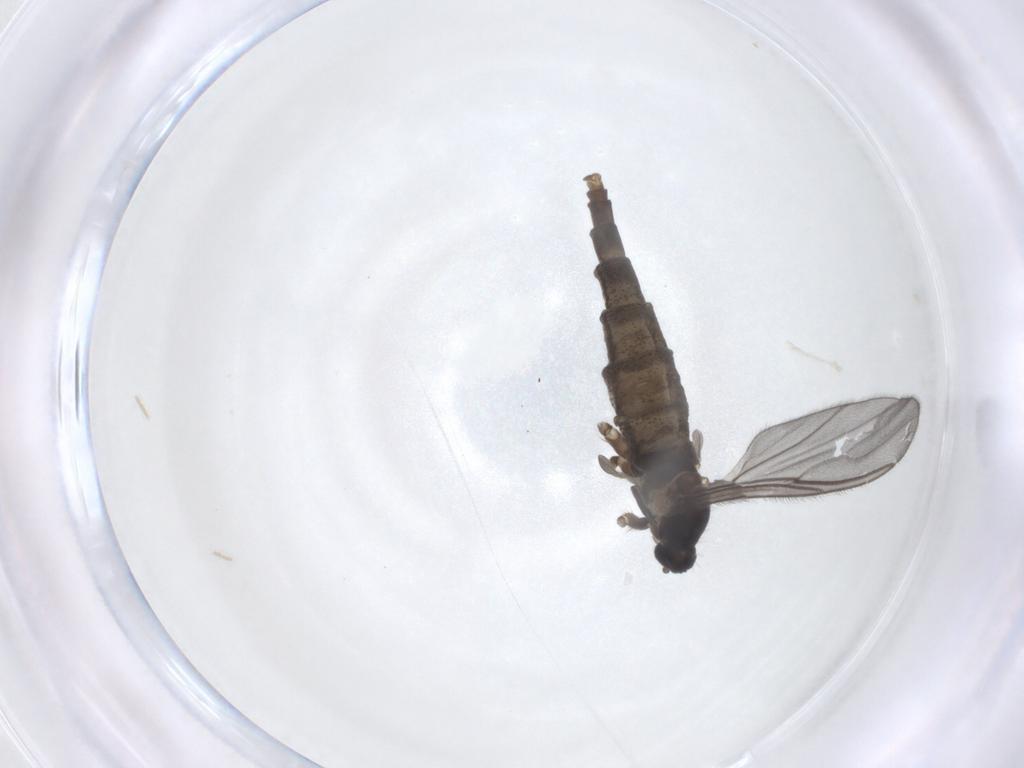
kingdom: Animalia
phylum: Arthropoda
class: Insecta
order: Diptera
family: Cecidomyiidae
